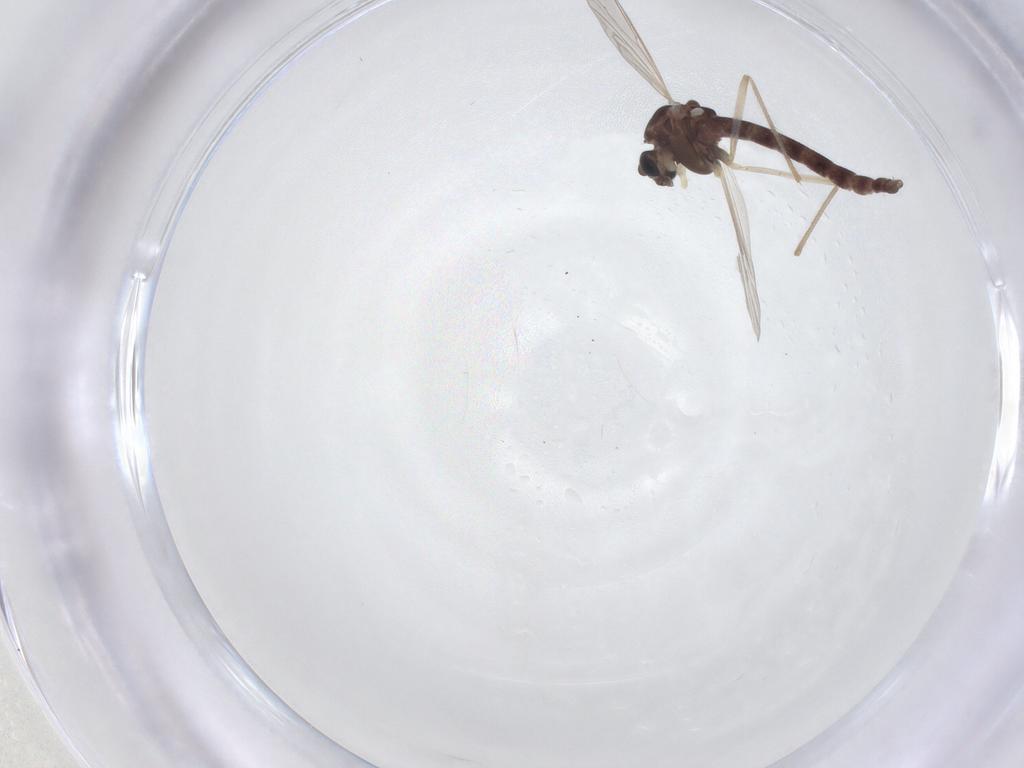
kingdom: Animalia
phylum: Arthropoda
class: Insecta
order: Diptera
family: Chironomidae
